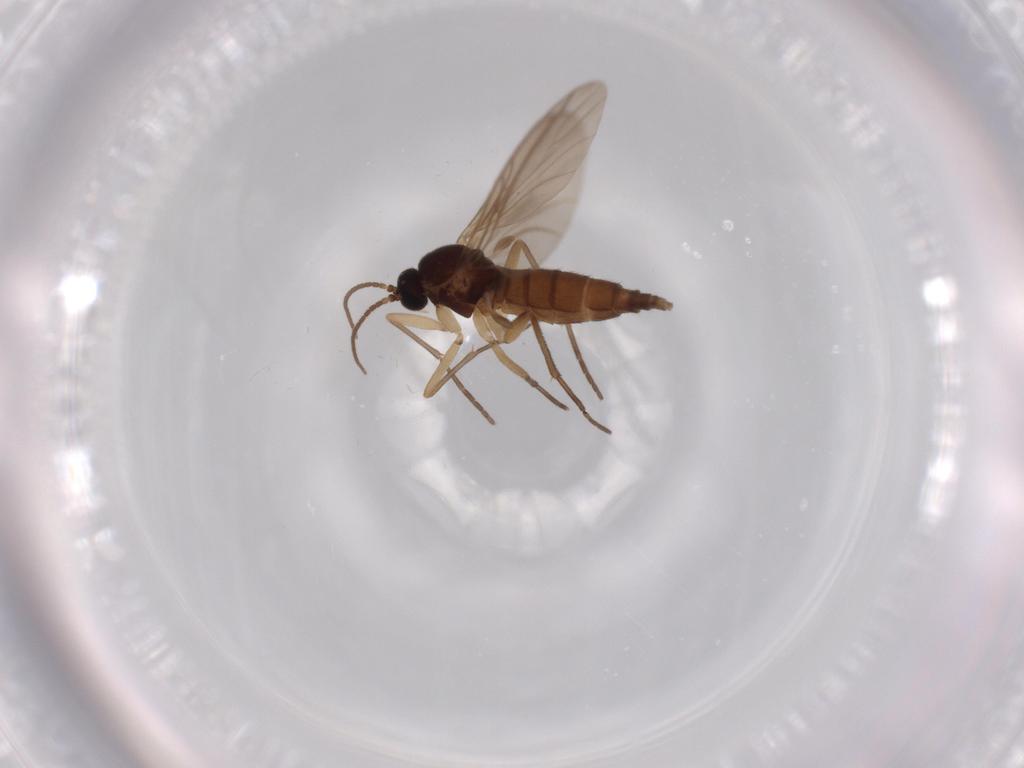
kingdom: Animalia
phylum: Arthropoda
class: Insecta
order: Diptera
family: Sciaridae
